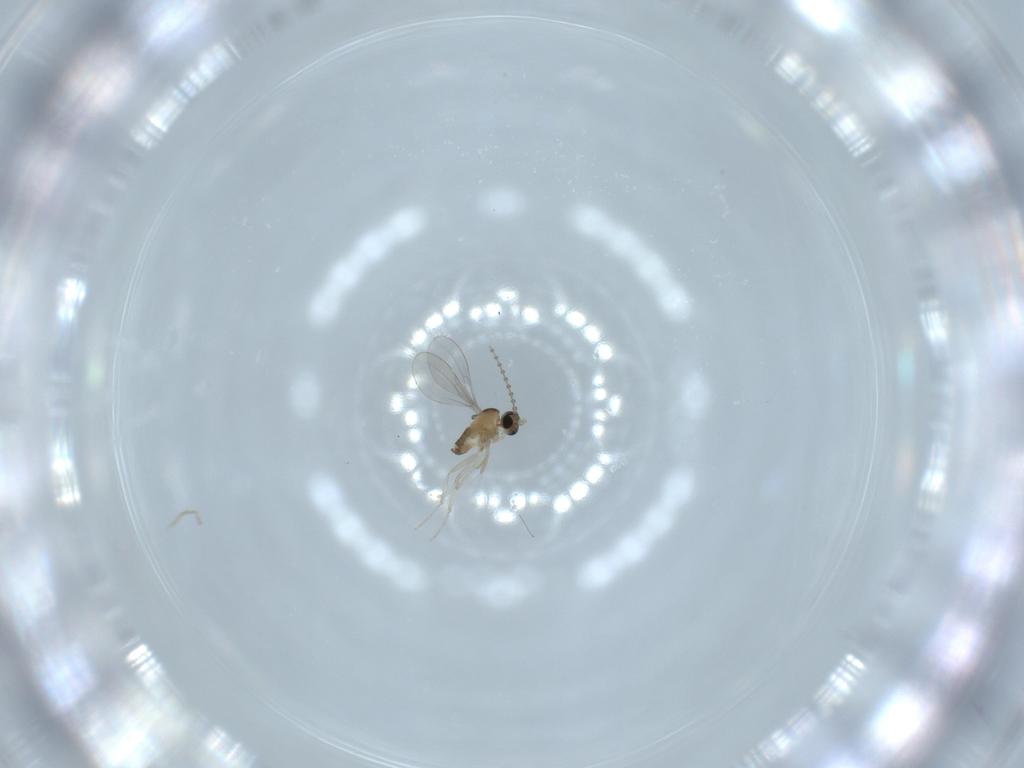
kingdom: Animalia
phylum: Arthropoda
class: Insecta
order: Diptera
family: Cecidomyiidae
